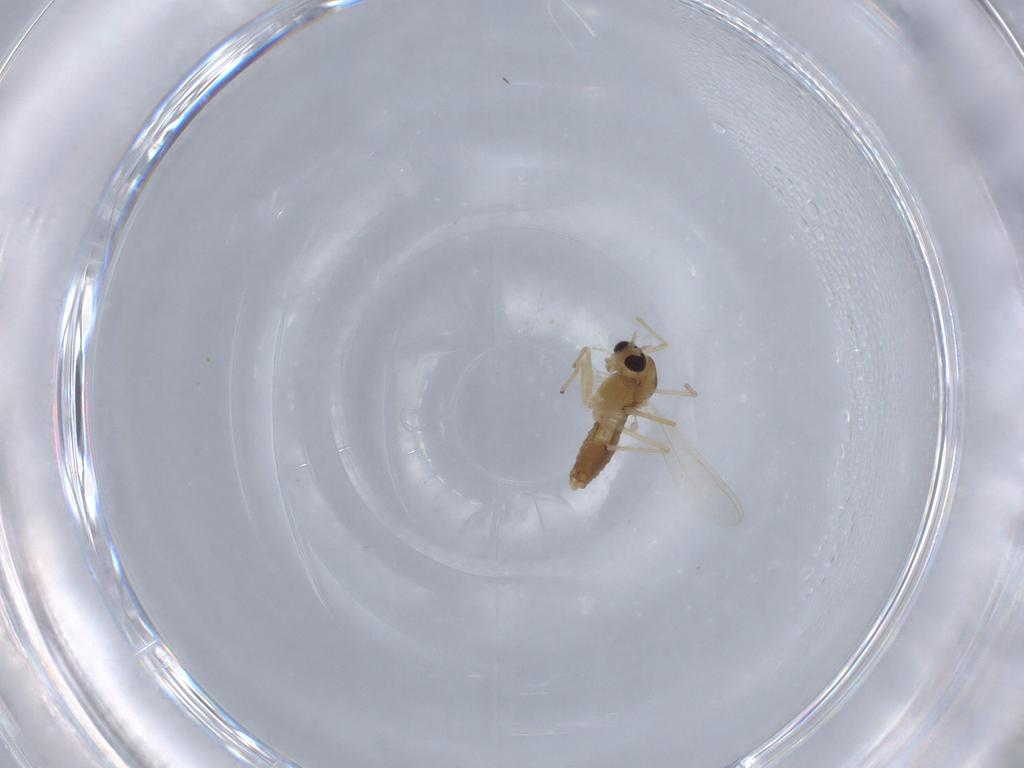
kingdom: Animalia
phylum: Arthropoda
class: Insecta
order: Diptera
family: Chironomidae
